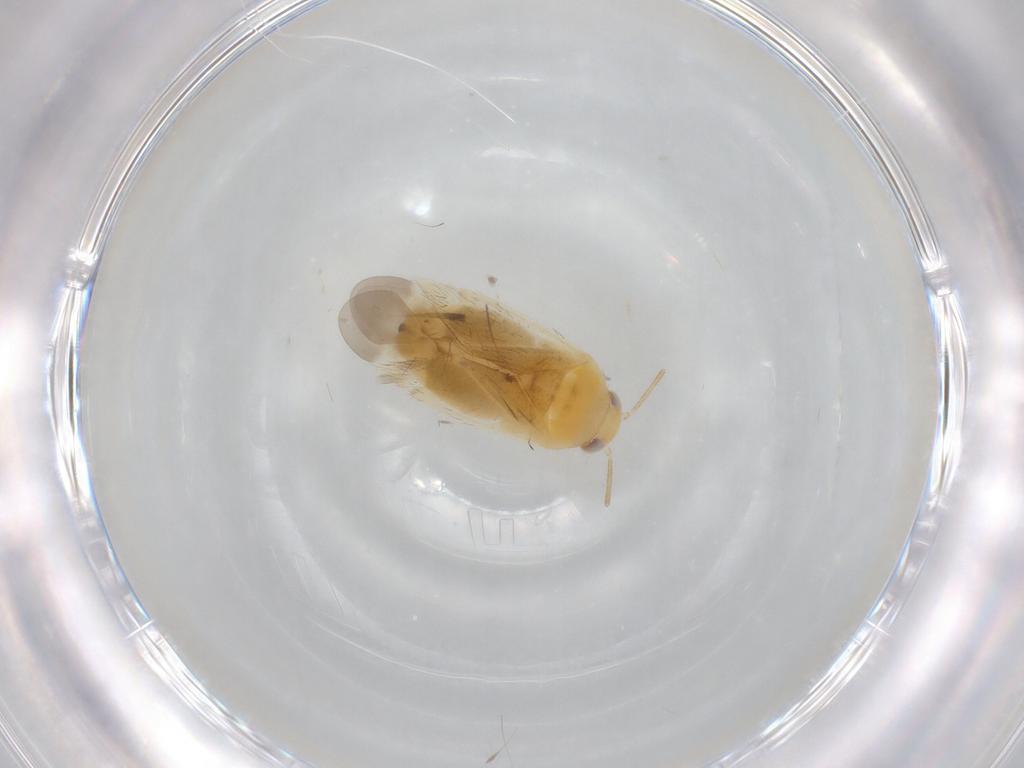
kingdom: Animalia
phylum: Arthropoda
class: Insecta
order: Hemiptera
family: Miridae
